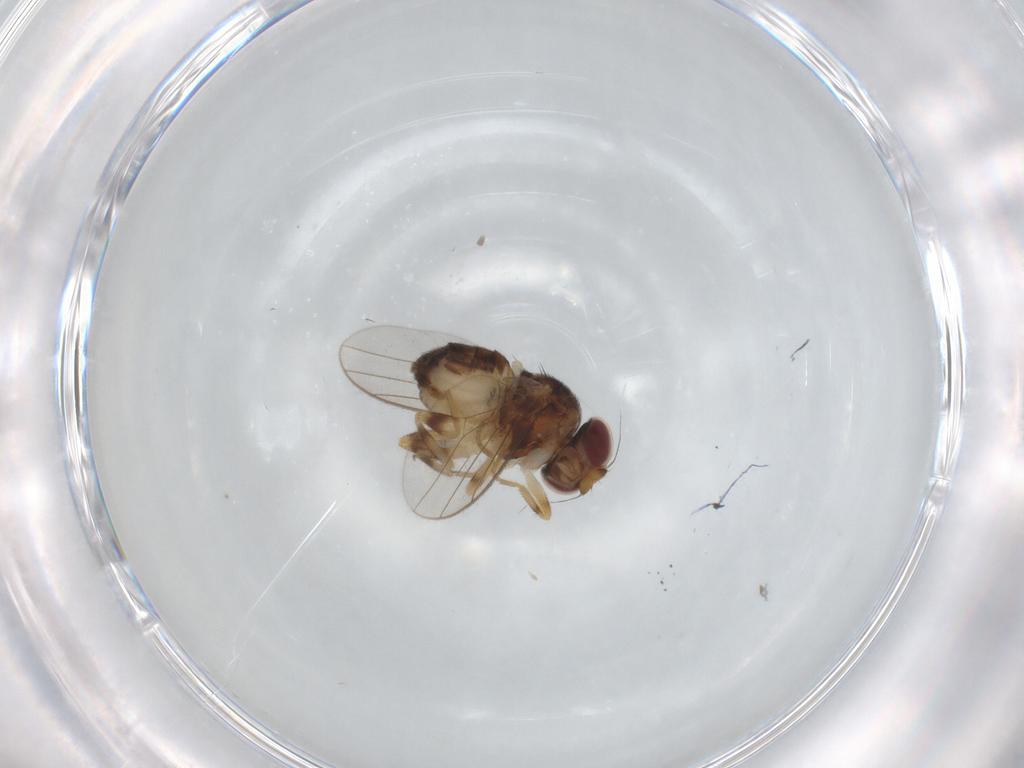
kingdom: Animalia
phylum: Arthropoda
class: Insecta
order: Diptera
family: Chloropidae
